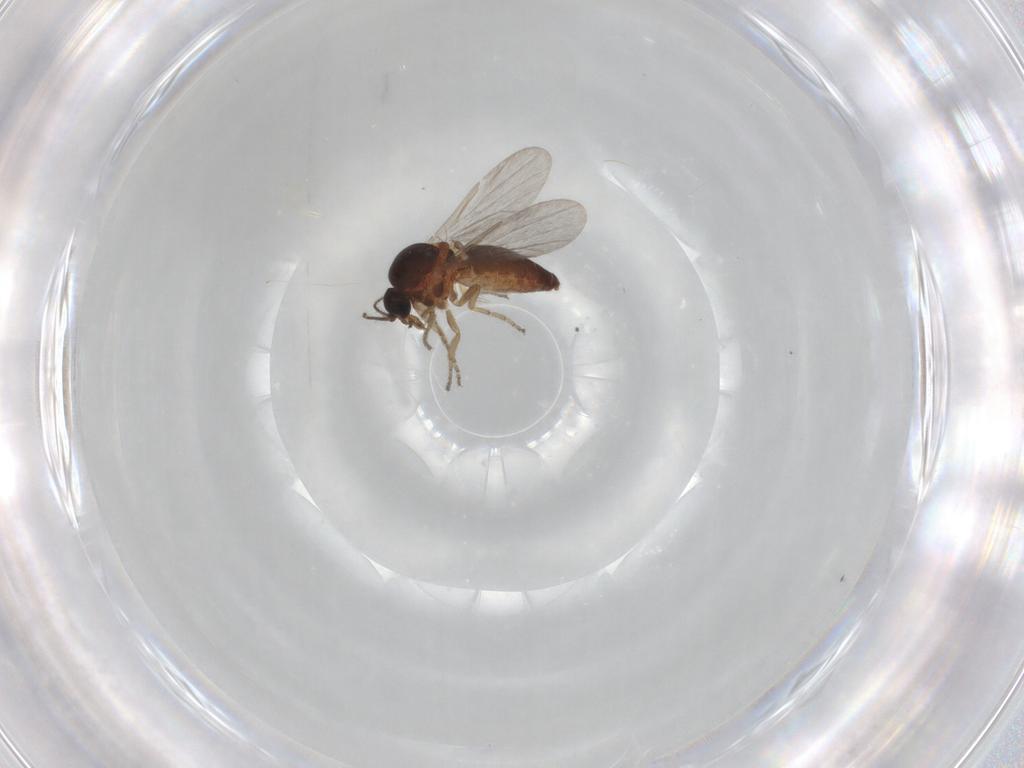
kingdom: Animalia
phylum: Arthropoda
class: Insecta
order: Diptera
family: Ceratopogonidae
